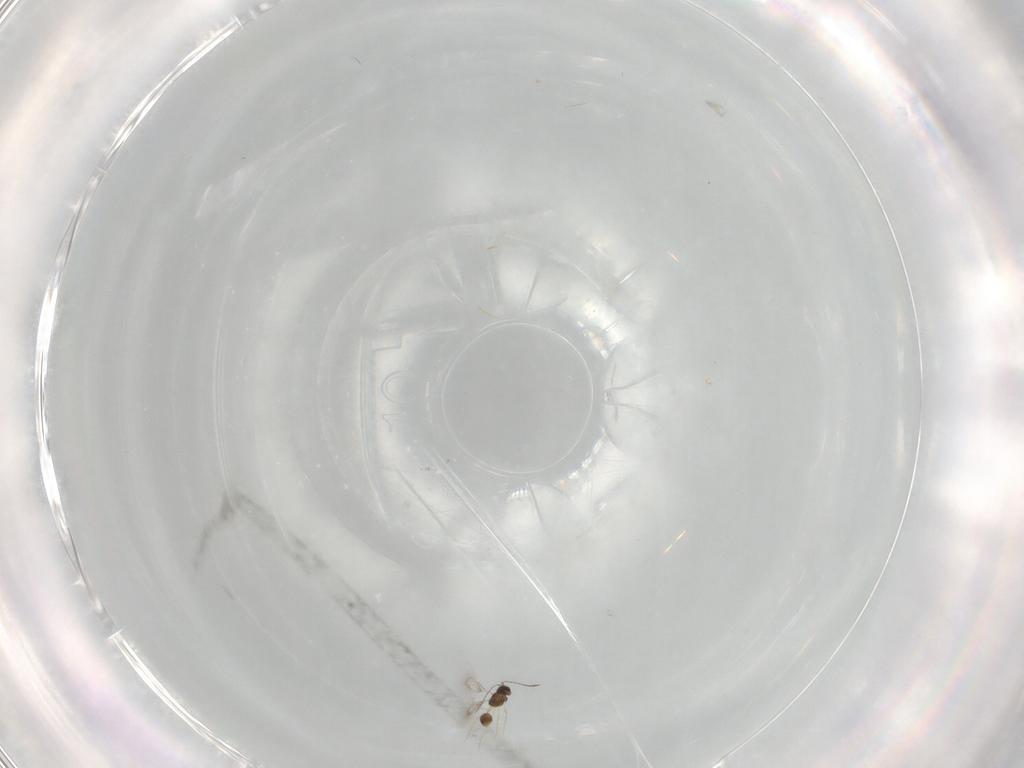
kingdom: Animalia
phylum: Arthropoda
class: Insecta
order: Hymenoptera
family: Mymarommatidae
